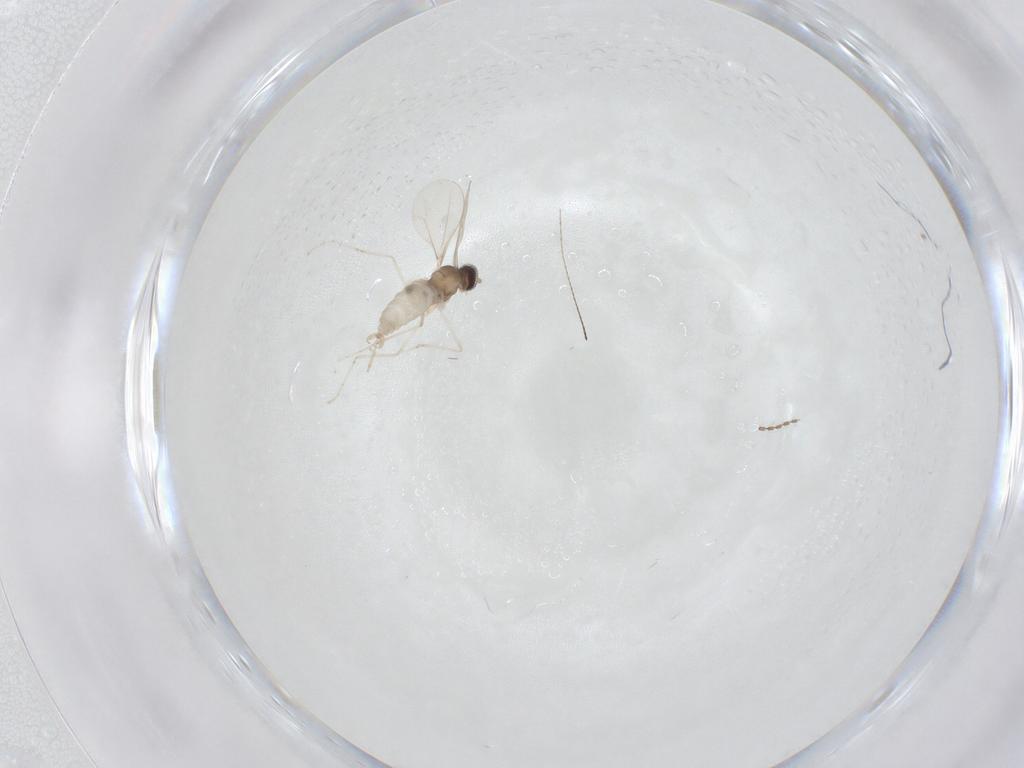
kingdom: Animalia
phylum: Arthropoda
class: Insecta
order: Diptera
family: Cecidomyiidae
